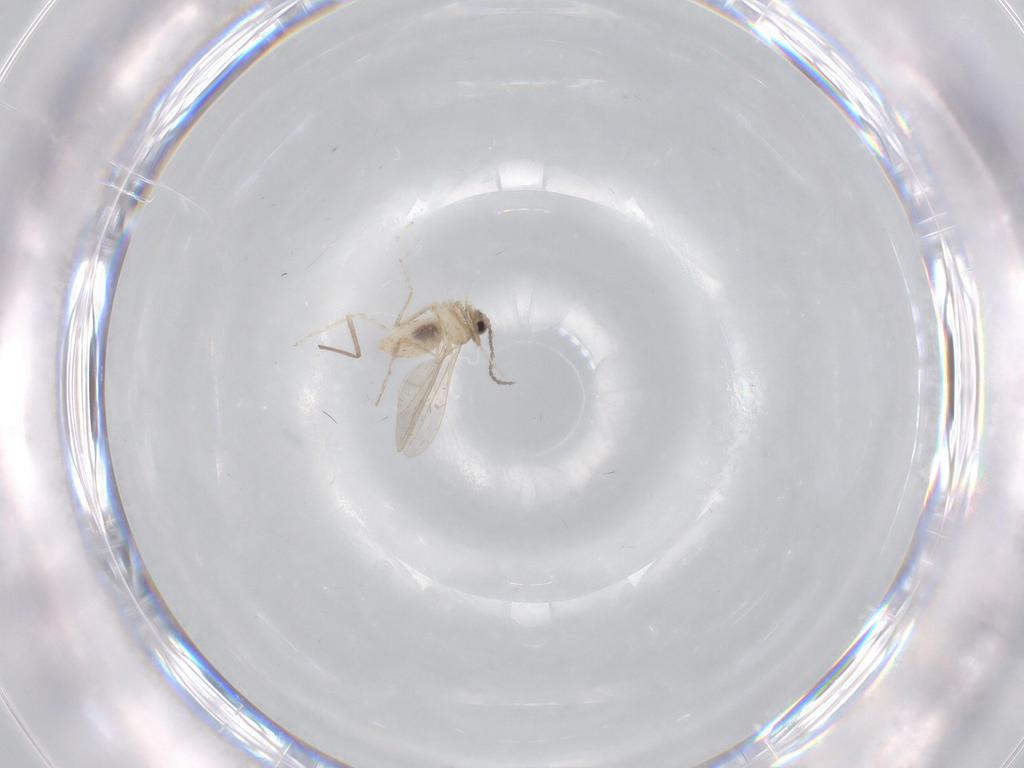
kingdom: Animalia
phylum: Arthropoda
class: Insecta
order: Diptera
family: Cecidomyiidae
